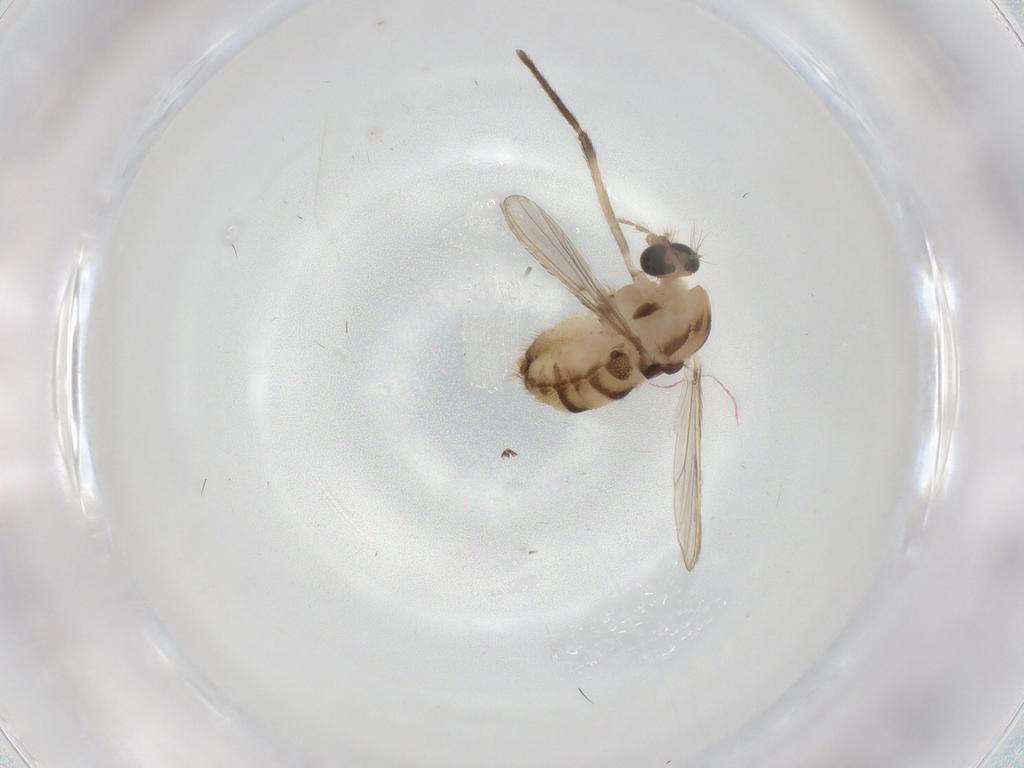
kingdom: Animalia
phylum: Arthropoda
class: Insecta
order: Diptera
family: Chironomidae
